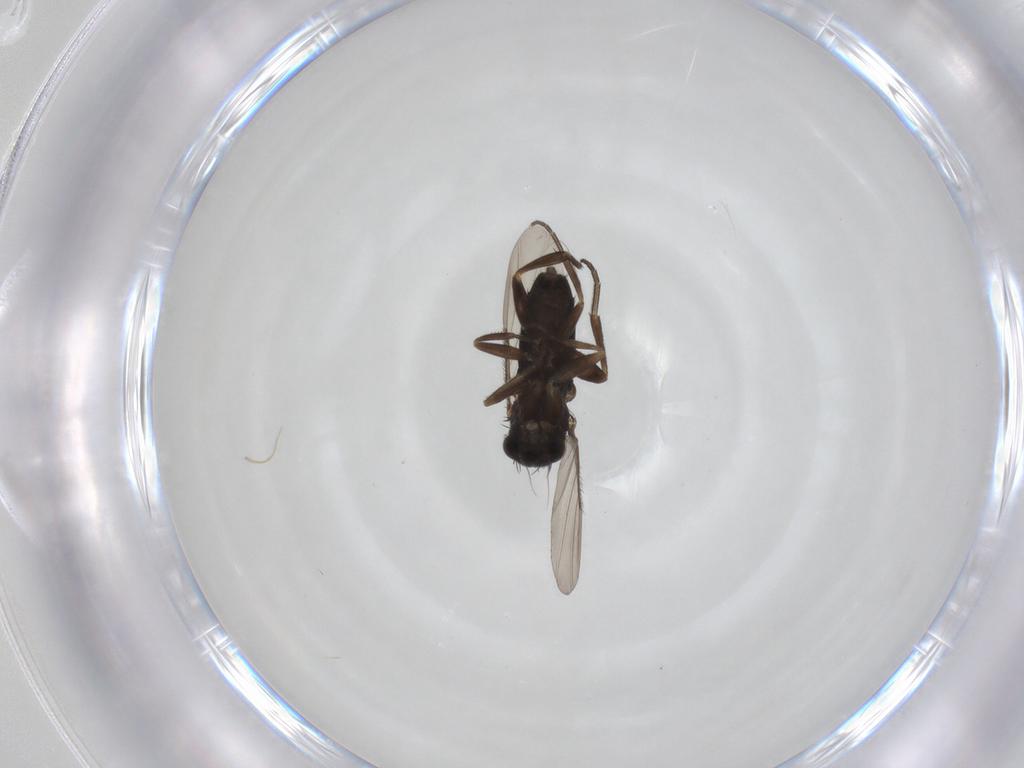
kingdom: Animalia
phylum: Arthropoda
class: Insecta
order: Diptera
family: Phoridae
